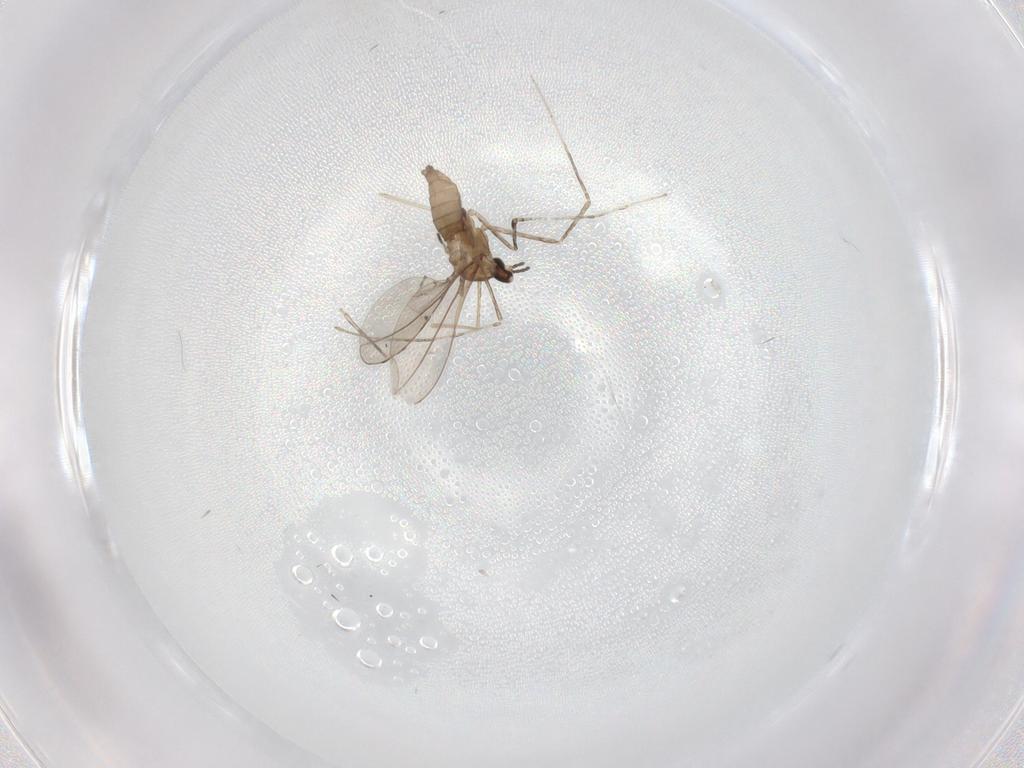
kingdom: Animalia
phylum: Arthropoda
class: Insecta
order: Diptera
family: Cecidomyiidae
